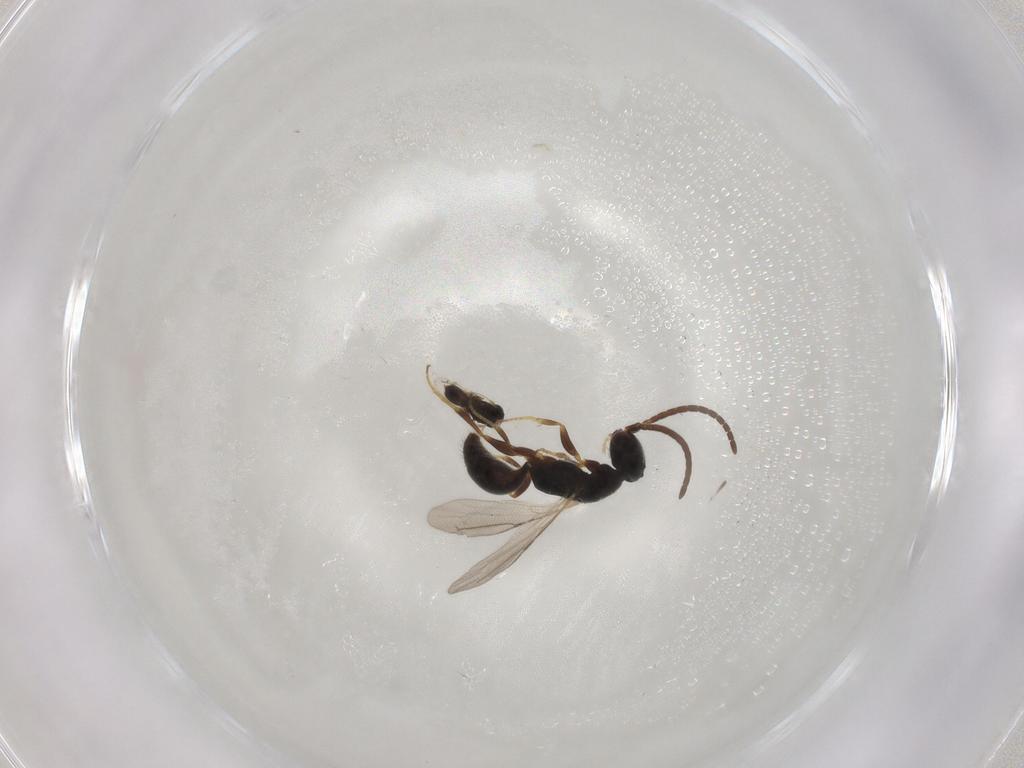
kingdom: Animalia
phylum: Arthropoda
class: Insecta
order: Hymenoptera
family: Bethylidae
